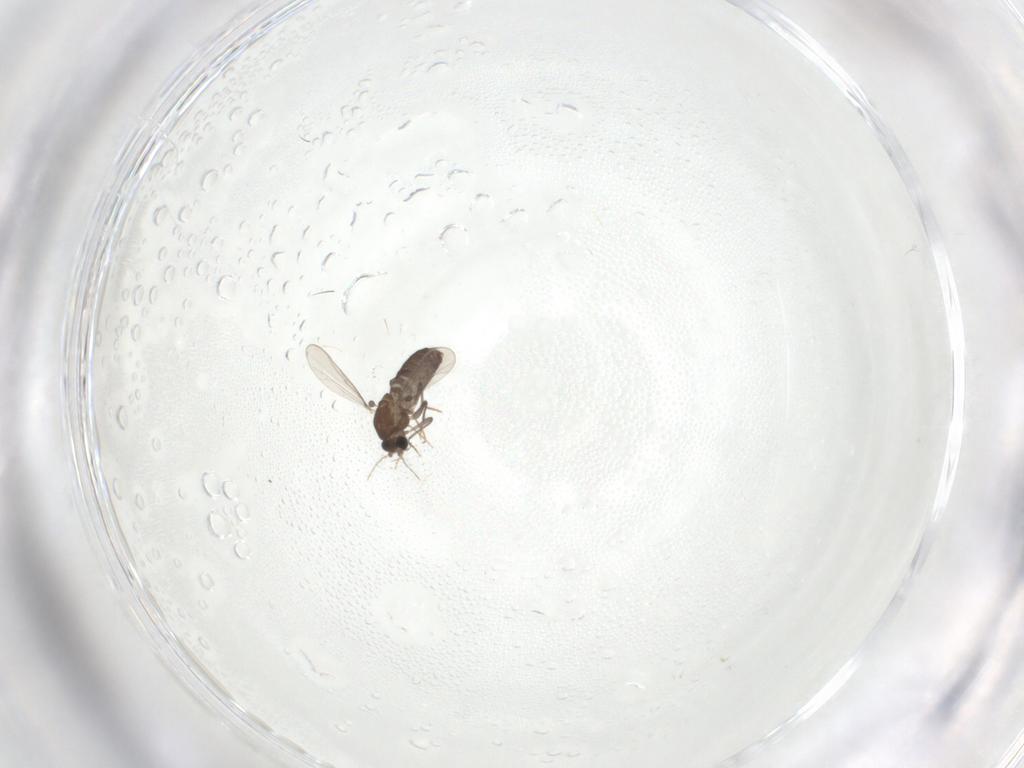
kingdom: Animalia
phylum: Arthropoda
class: Insecta
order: Diptera
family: Chironomidae
